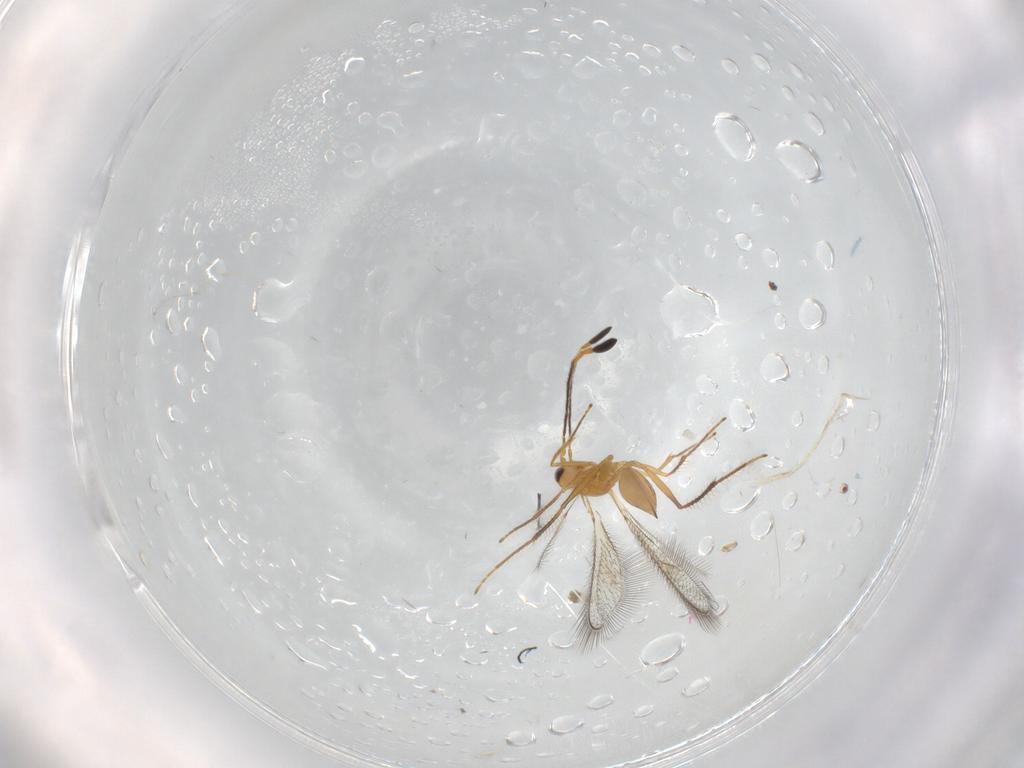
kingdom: Animalia
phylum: Arthropoda
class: Insecta
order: Hymenoptera
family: Mymaridae
